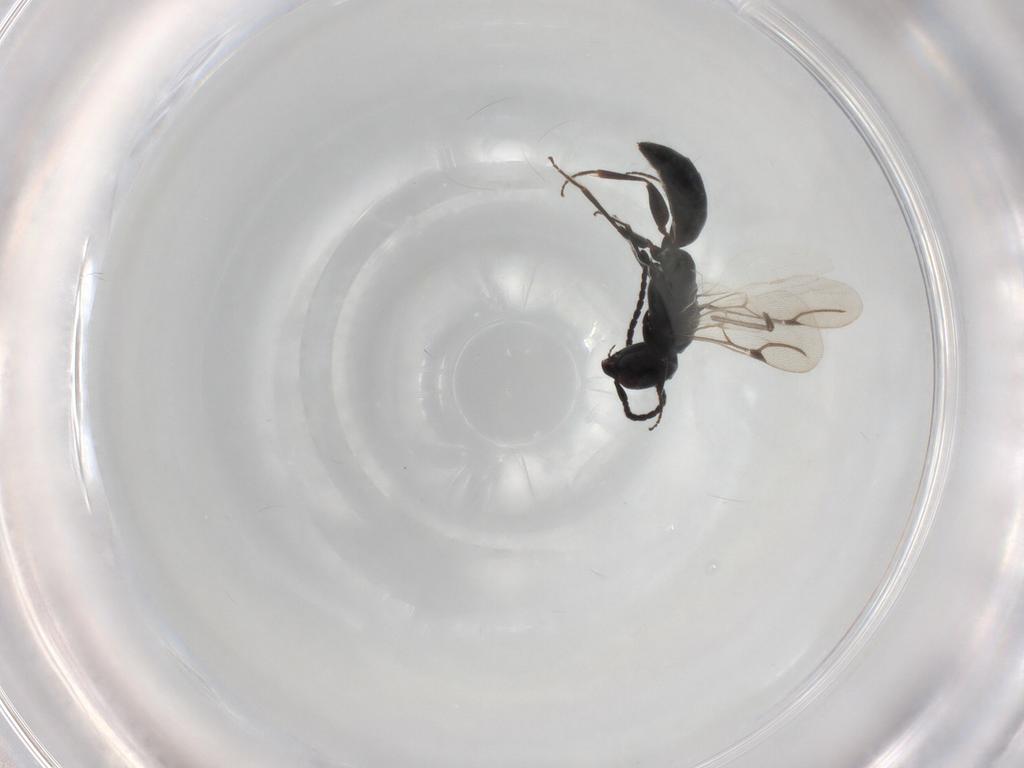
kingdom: Animalia
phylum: Arthropoda
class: Insecta
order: Hymenoptera
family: Bethylidae
